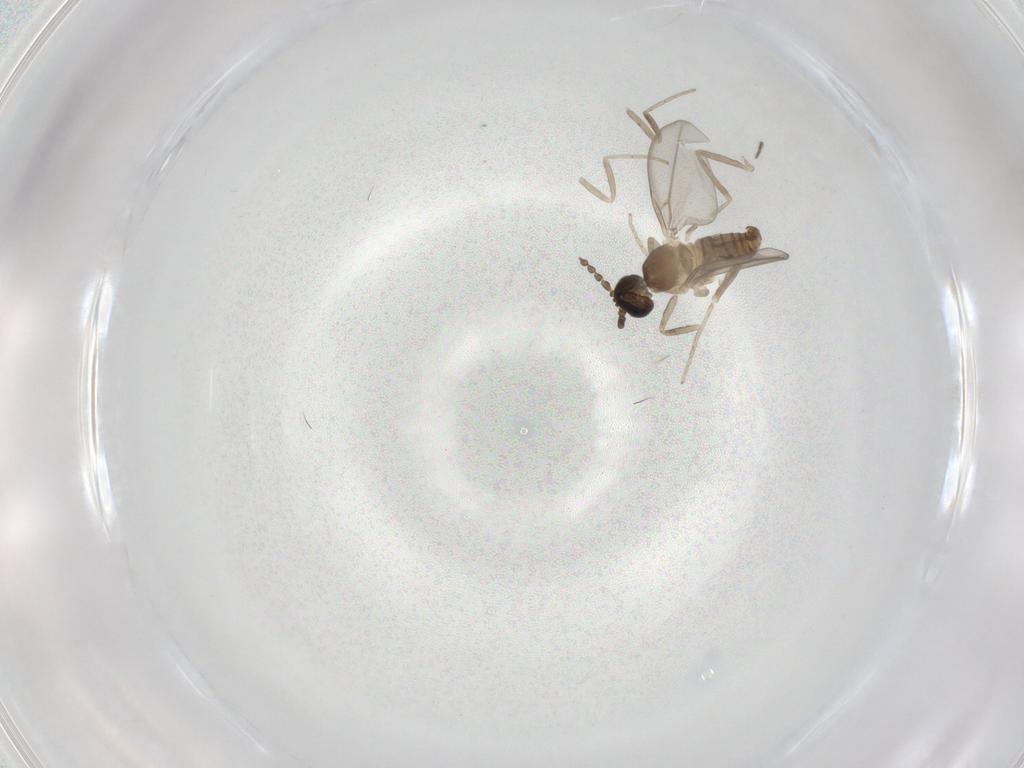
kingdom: Animalia
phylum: Arthropoda
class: Insecta
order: Diptera
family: Cecidomyiidae
